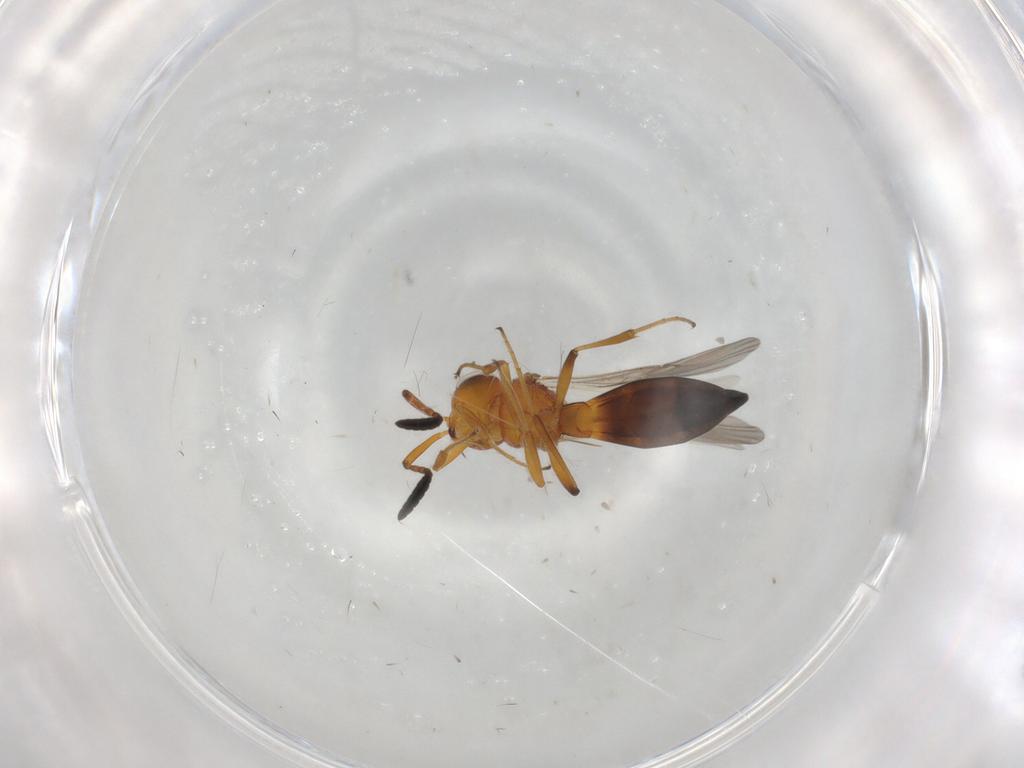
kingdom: Animalia
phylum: Arthropoda
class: Insecta
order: Hymenoptera
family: Scelionidae
